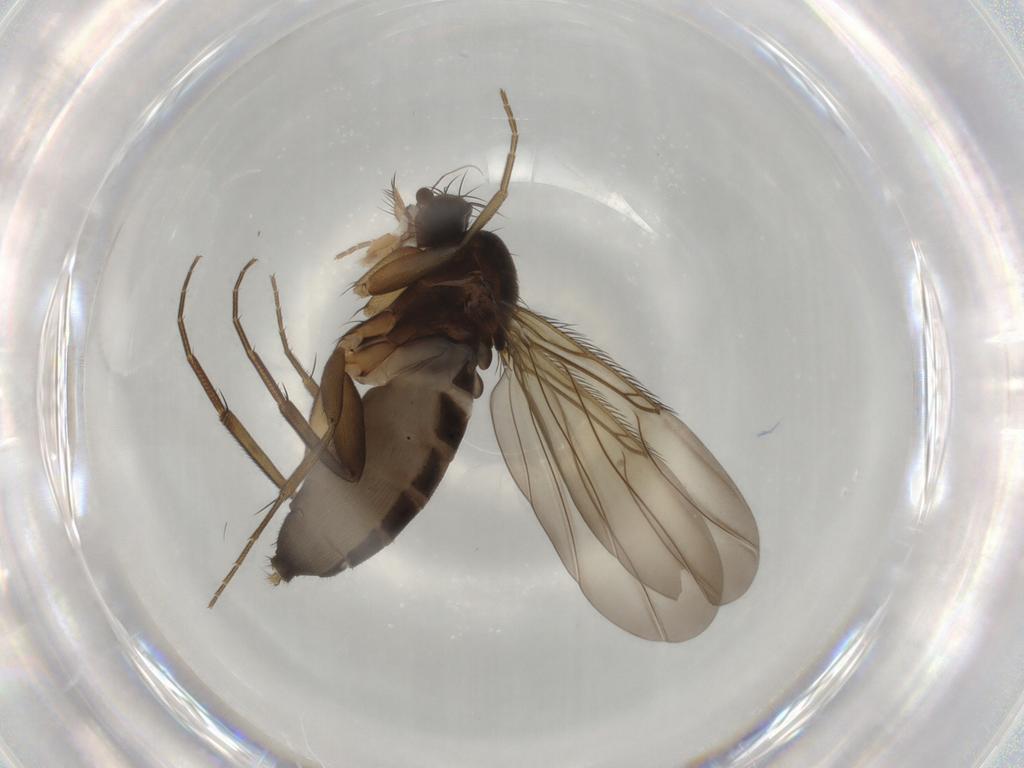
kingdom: Animalia
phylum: Arthropoda
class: Insecta
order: Diptera
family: Phoridae
